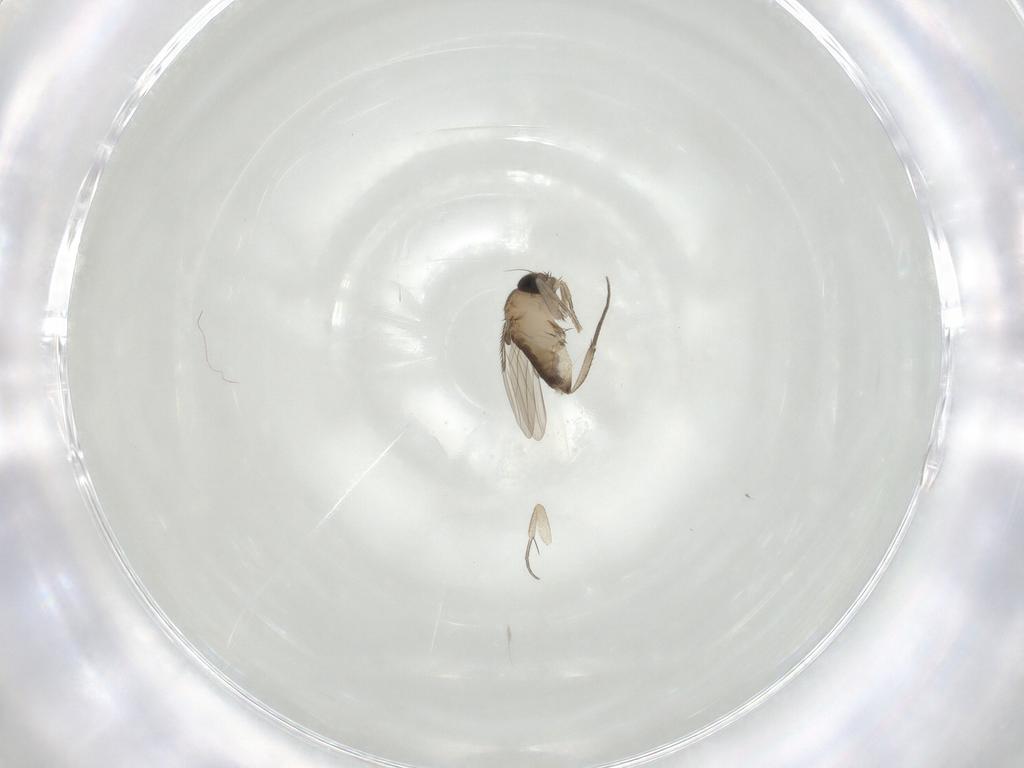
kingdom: Animalia
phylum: Arthropoda
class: Insecta
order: Diptera
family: Phoridae
